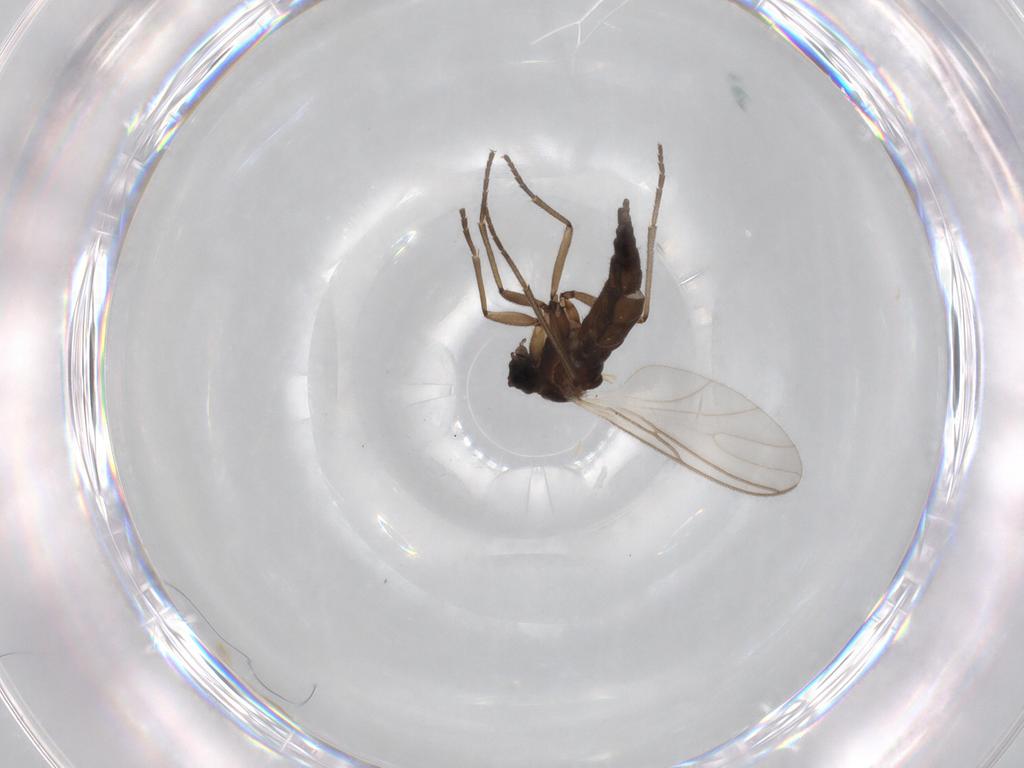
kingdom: Animalia
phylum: Arthropoda
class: Insecta
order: Diptera
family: Sciaridae
